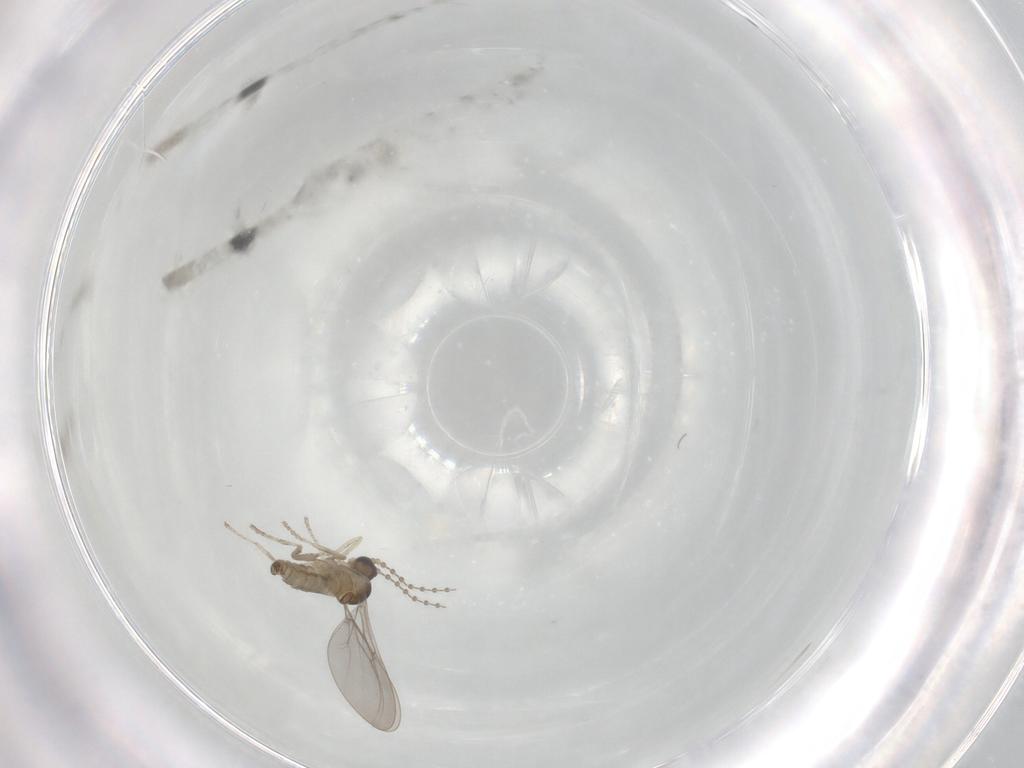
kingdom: Animalia
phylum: Arthropoda
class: Insecta
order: Diptera
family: Cecidomyiidae
